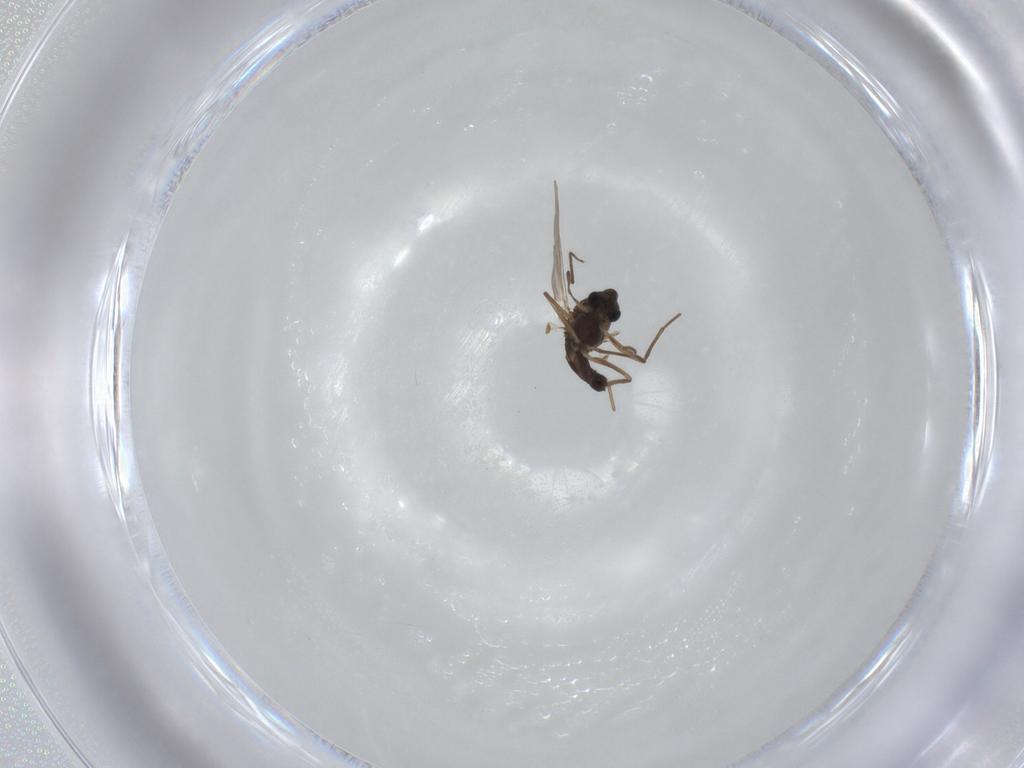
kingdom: Animalia
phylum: Arthropoda
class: Insecta
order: Diptera
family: Chironomidae
